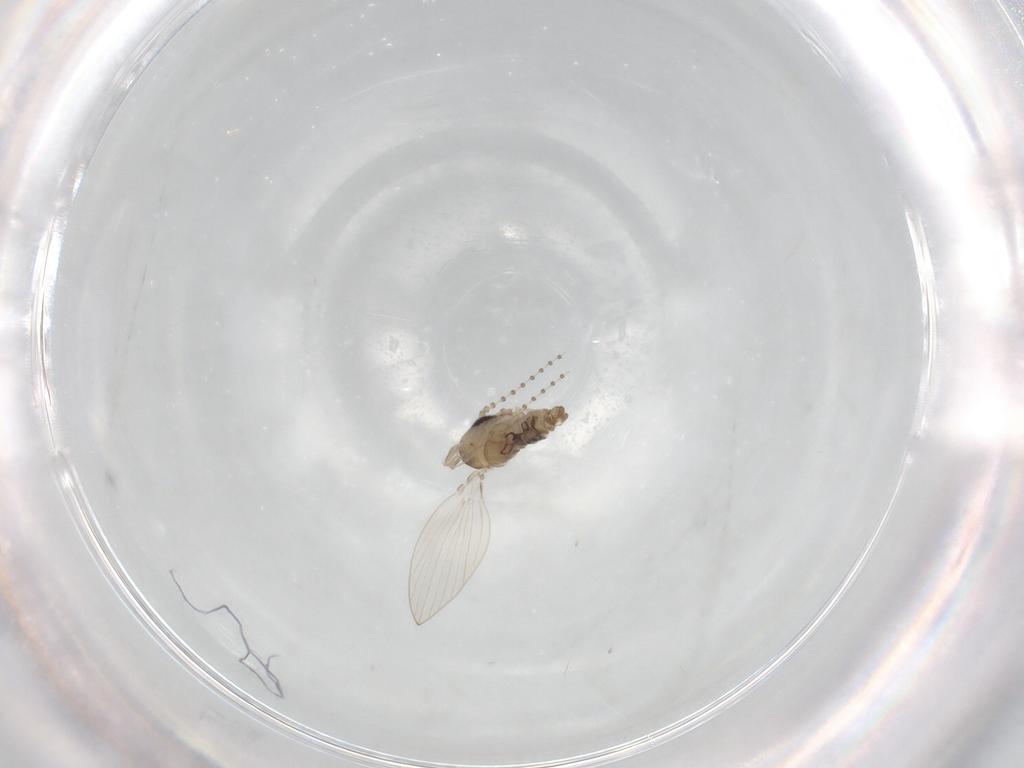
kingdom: Animalia
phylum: Arthropoda
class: Insecta
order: Diptera
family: Psychodidae
